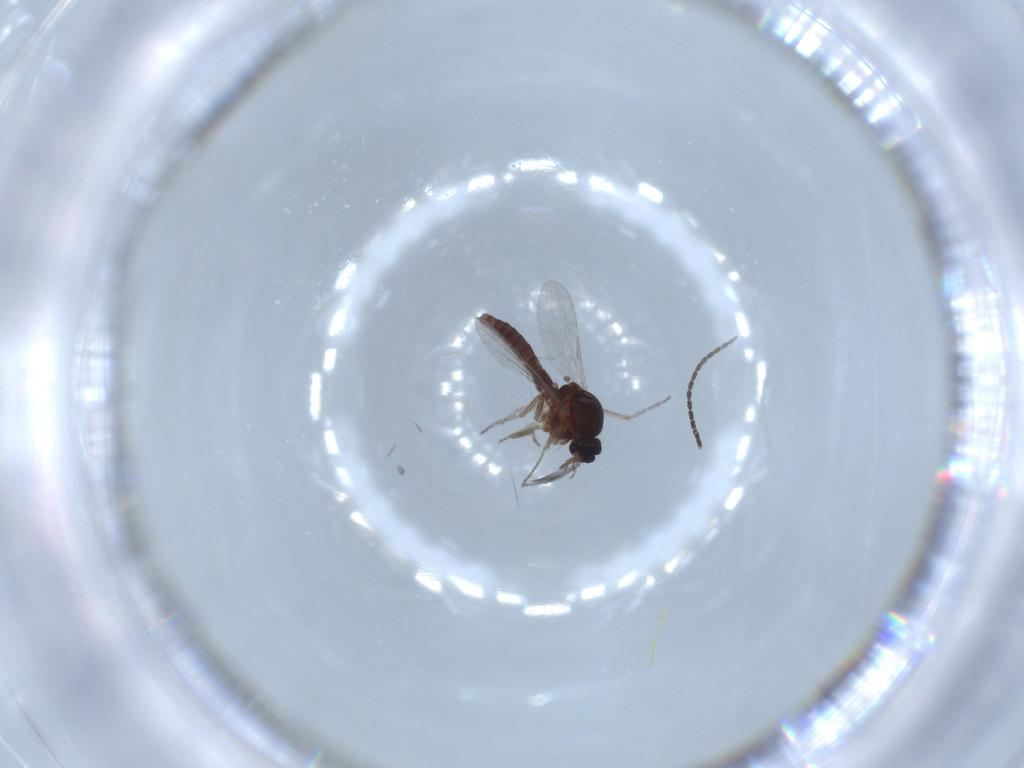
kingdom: Animalia
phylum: Arthropoda
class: Insecta
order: Diptera
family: Ceratopogonidae
